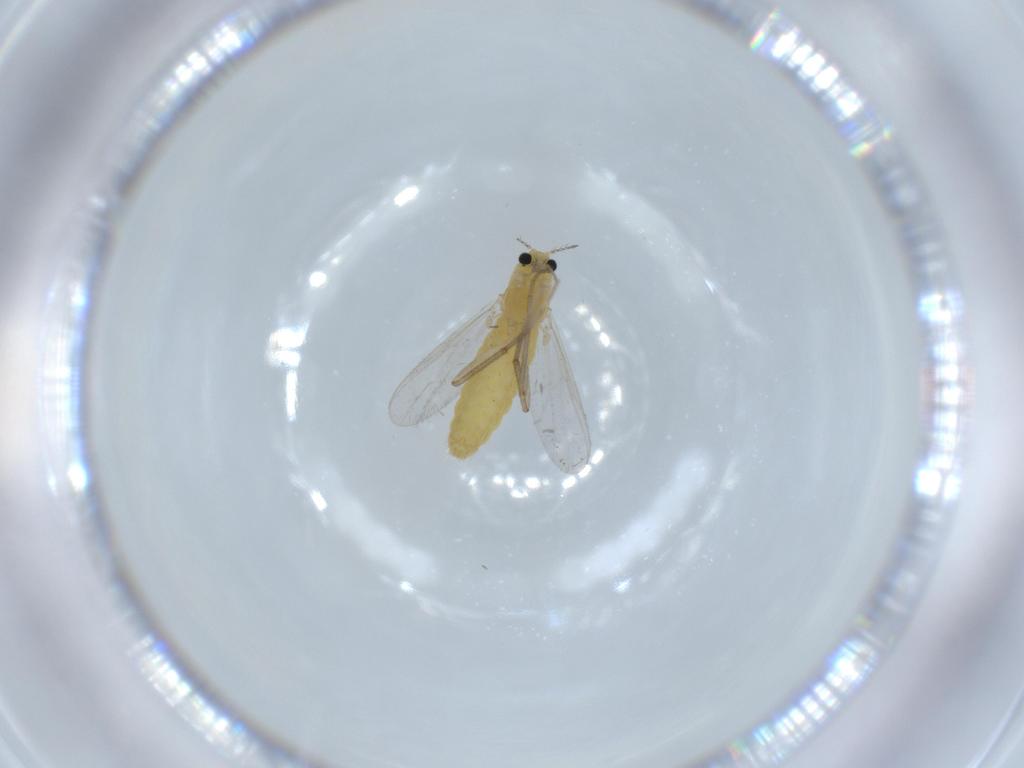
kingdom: Animalia
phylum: Arthropoda
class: Insecta
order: Diptera
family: Chironomidae
